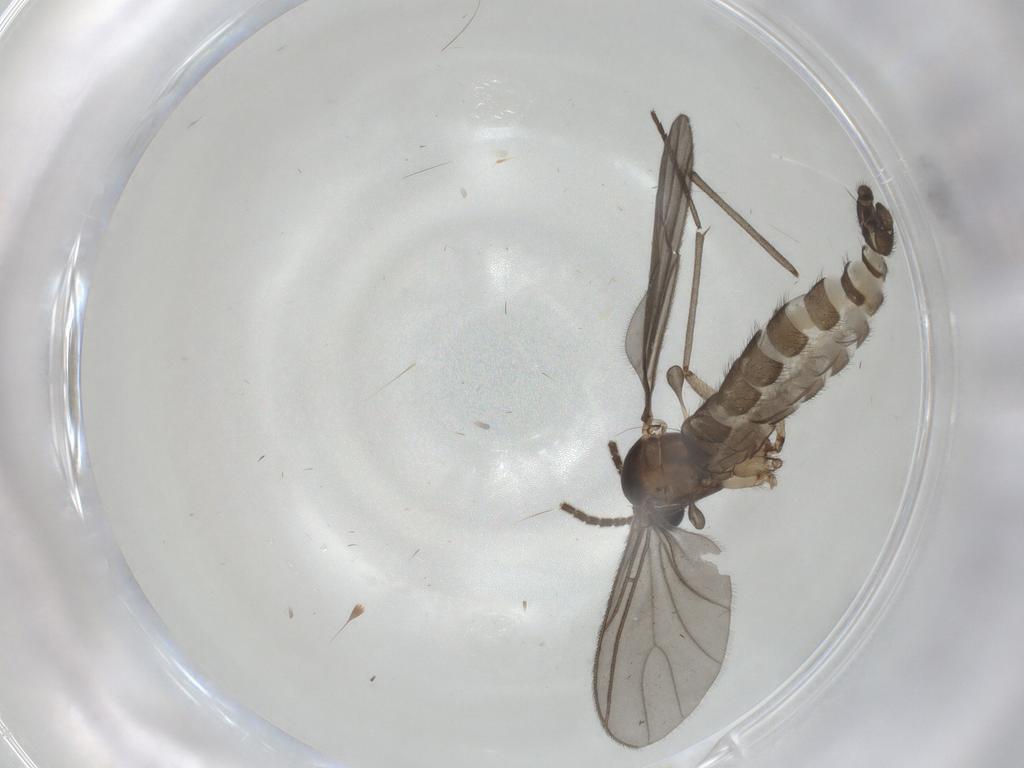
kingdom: Animalia
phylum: Arthropoda
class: Insecta
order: Diptera
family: Sciaridae
